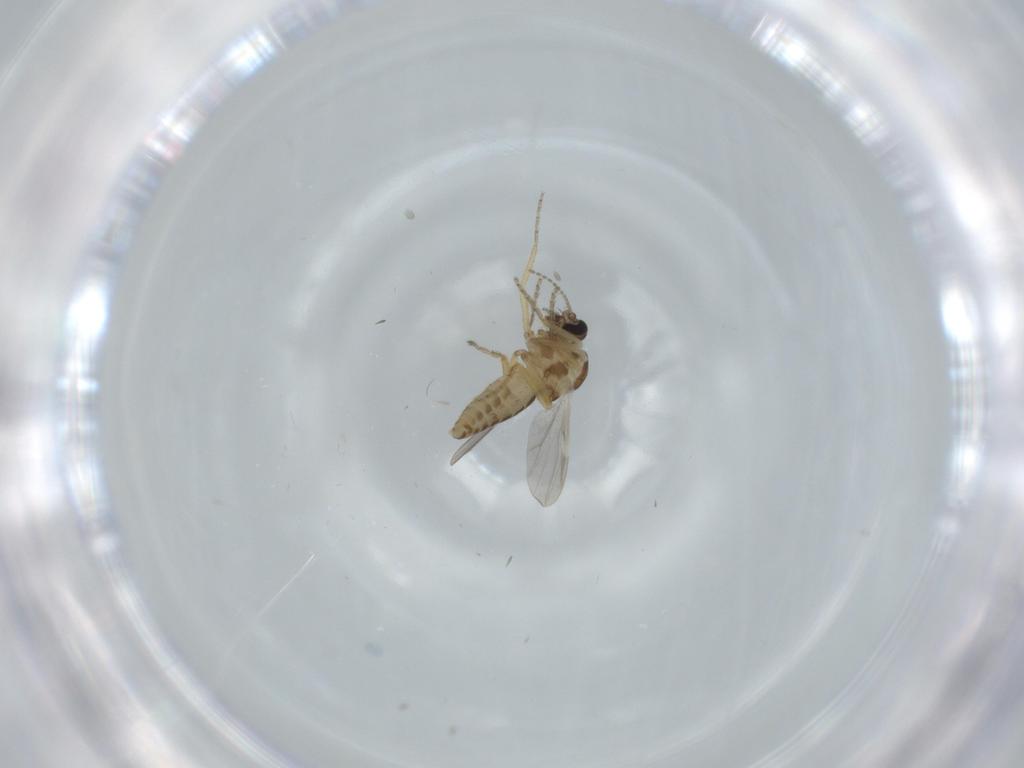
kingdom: Animalia
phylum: Arthropoda
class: Insecta
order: Diptera
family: Ceratopogonidae
